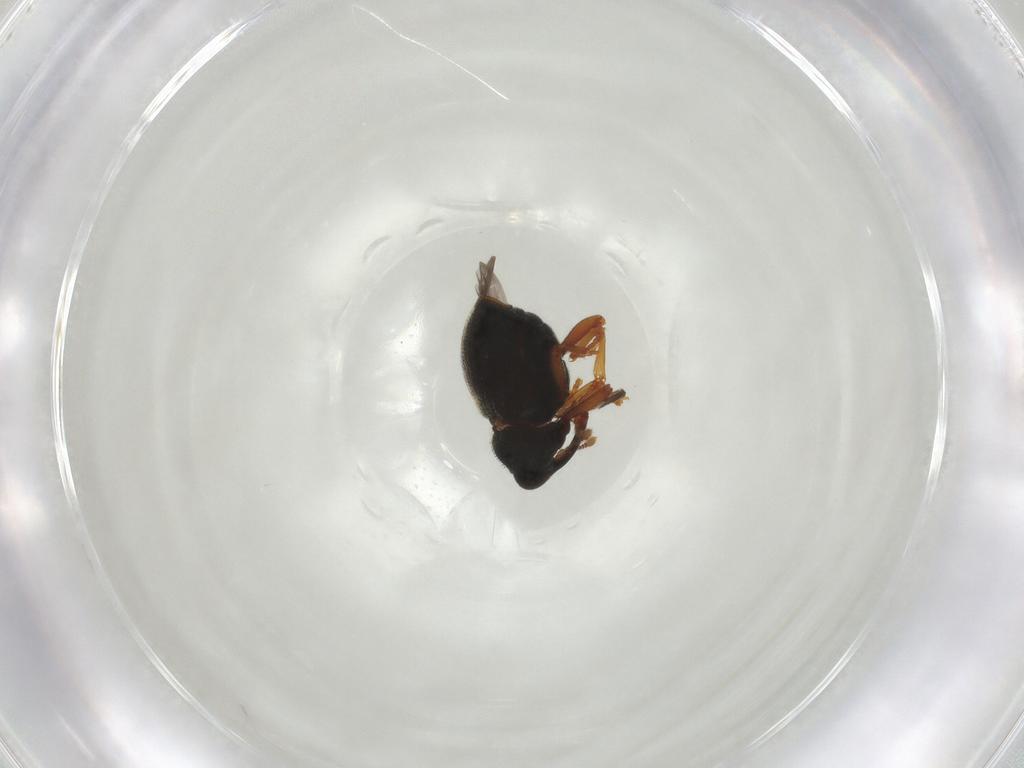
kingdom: Animalia
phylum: Arthropoda
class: Insecta
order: Coleoptera
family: Curculionidae
